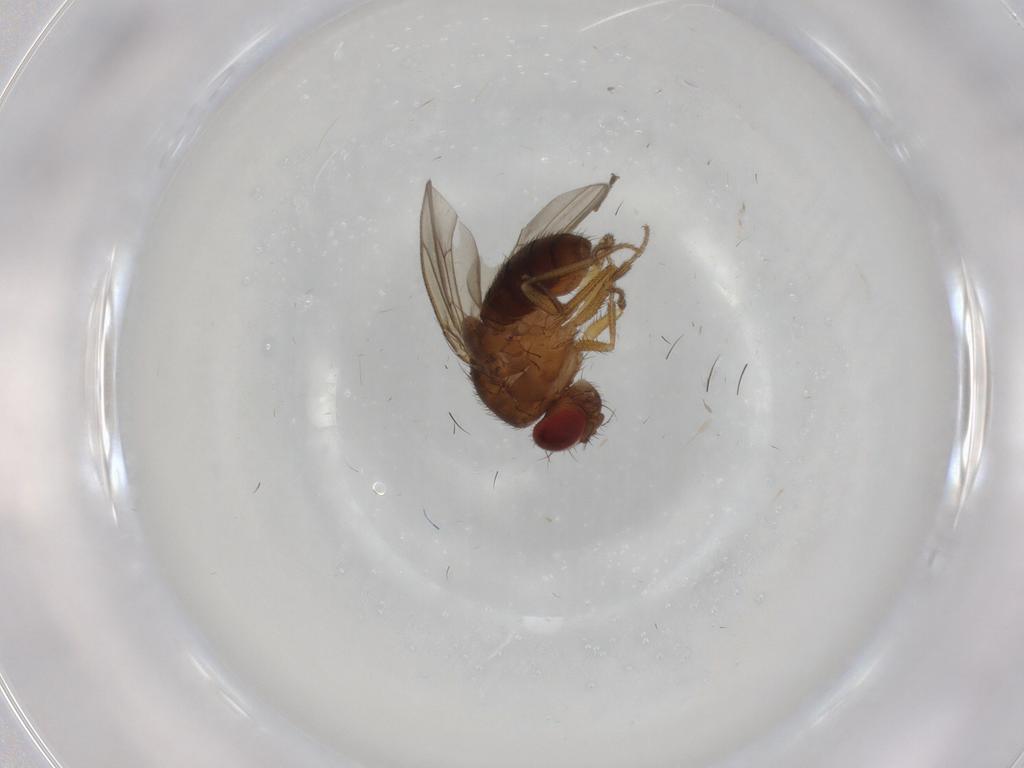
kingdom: Animalia
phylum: Arthropoda
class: Insecta
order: Diptera
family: Drosophilidae
